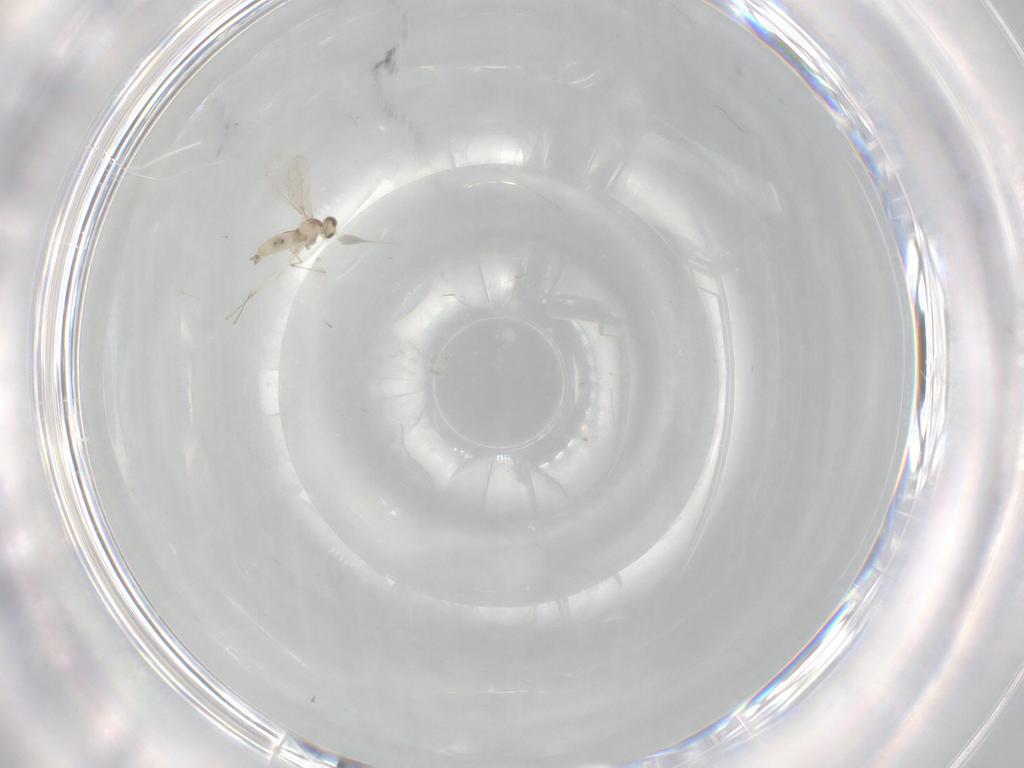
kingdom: Animalia
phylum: Arthropoda
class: Insecta
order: Diptera
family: Cecidomyiidae
